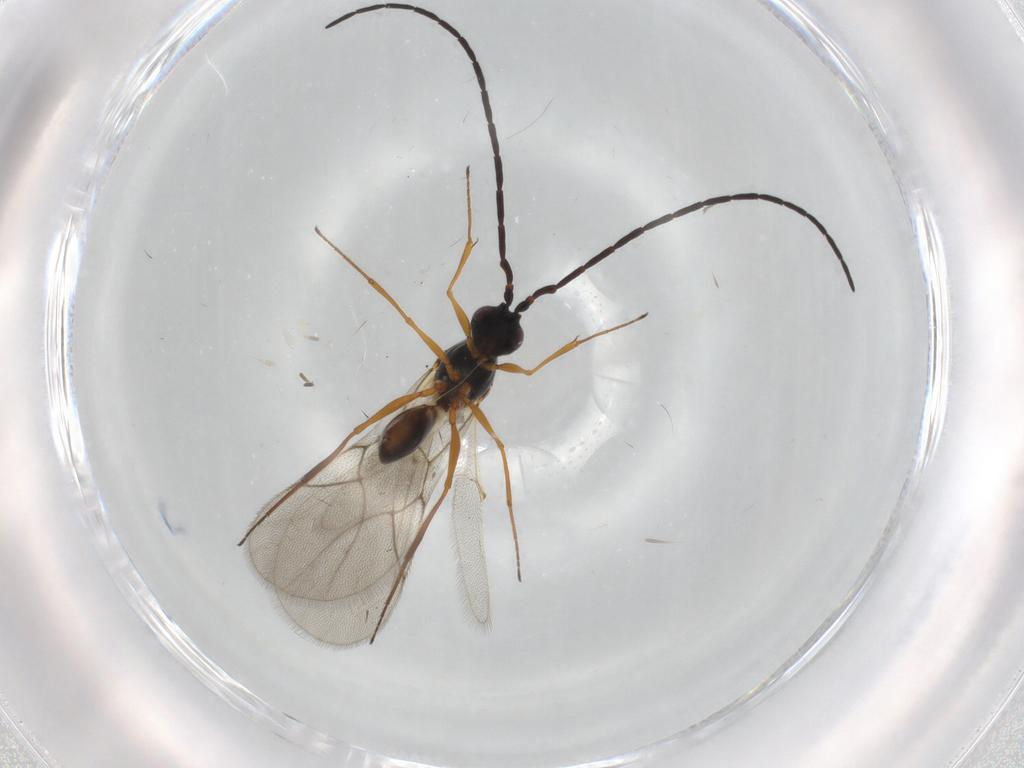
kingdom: Animalia
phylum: Arthropoda
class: Insecta
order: Hymenoptera
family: Figitidae
